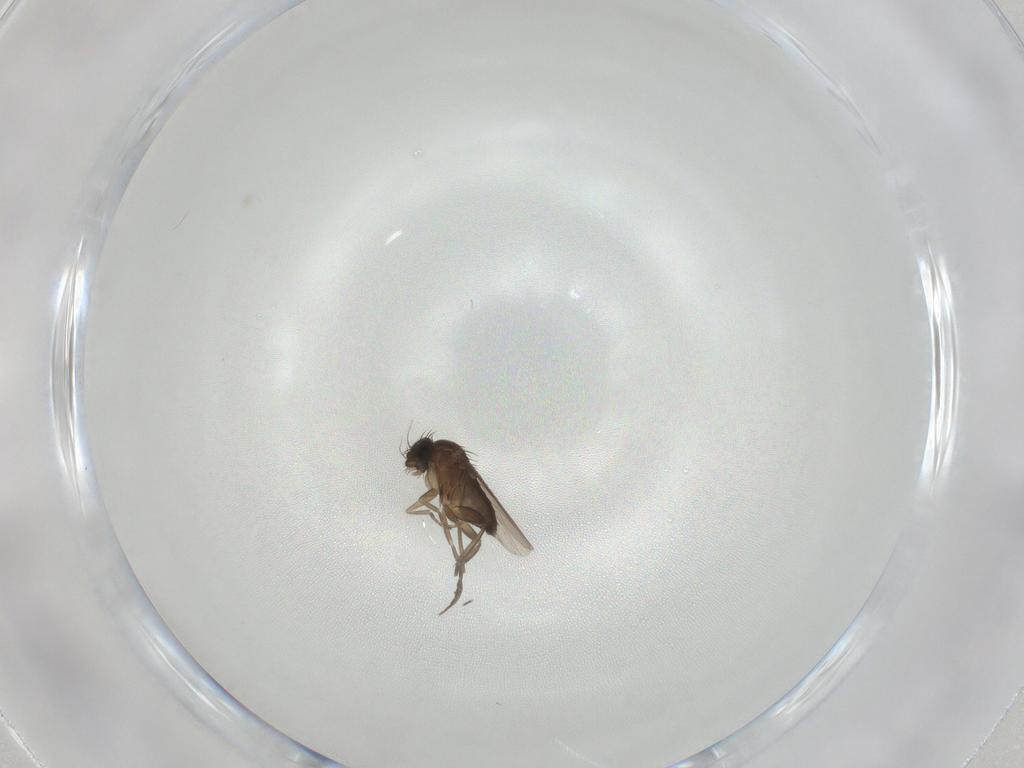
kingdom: Animalia
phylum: Arthropoda
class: Insecta
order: Diptera
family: Phoridae
